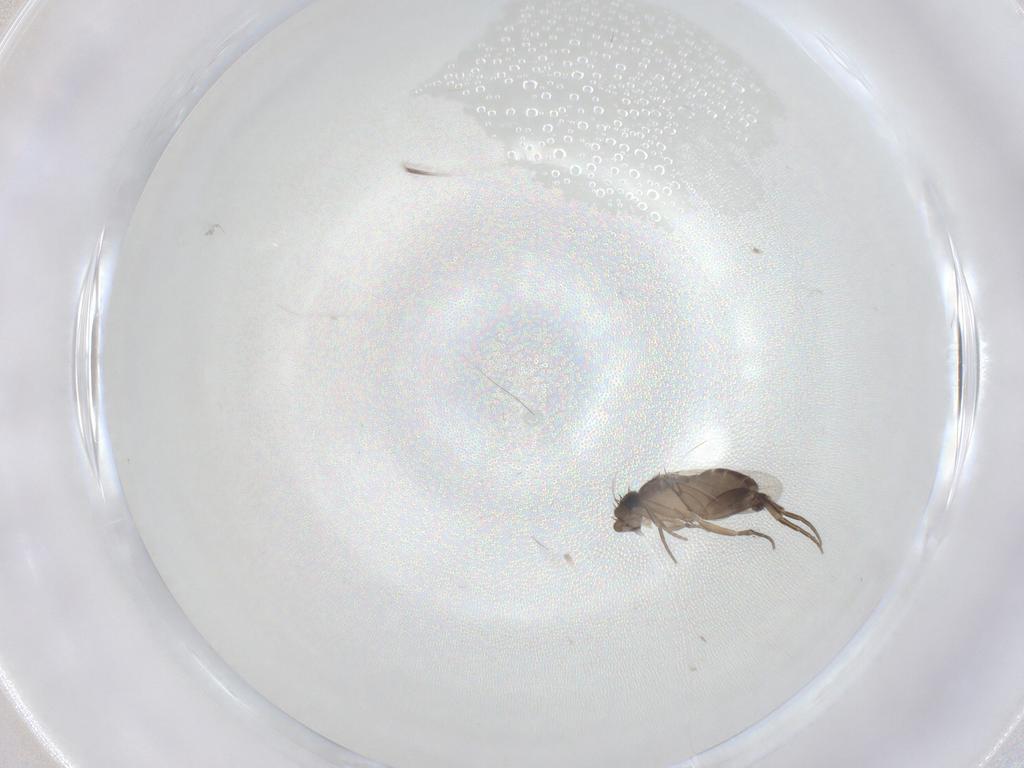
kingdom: Animalia
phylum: Arthropoda
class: Insecta
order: Diptera
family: Phoridae
